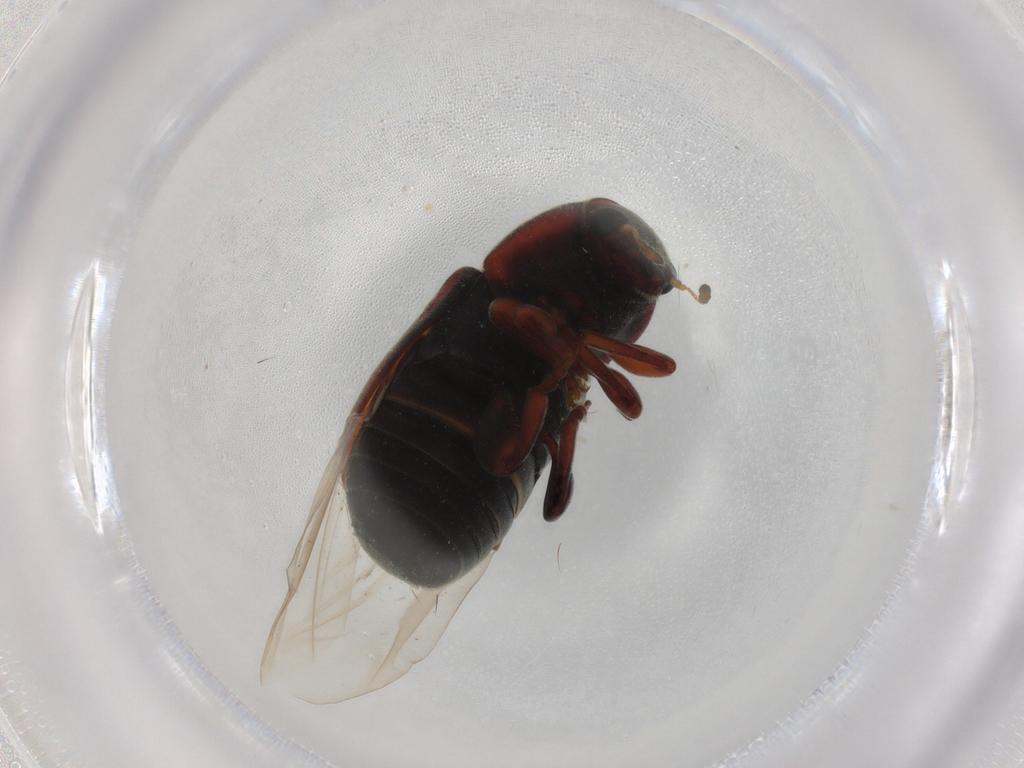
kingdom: Animalia
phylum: Arthropoda
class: Insecta
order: Coleoptera
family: Anthribidae
